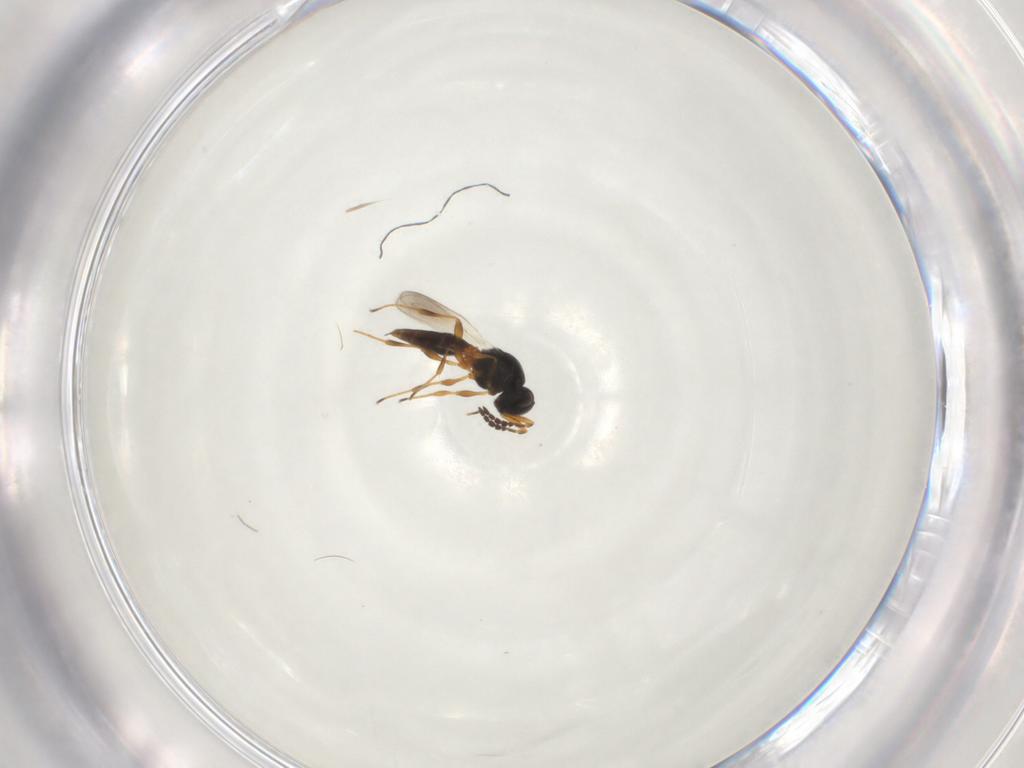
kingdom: Animalia
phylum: Arthropoda
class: Insecta
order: Hymenoptera
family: Platygastridae
